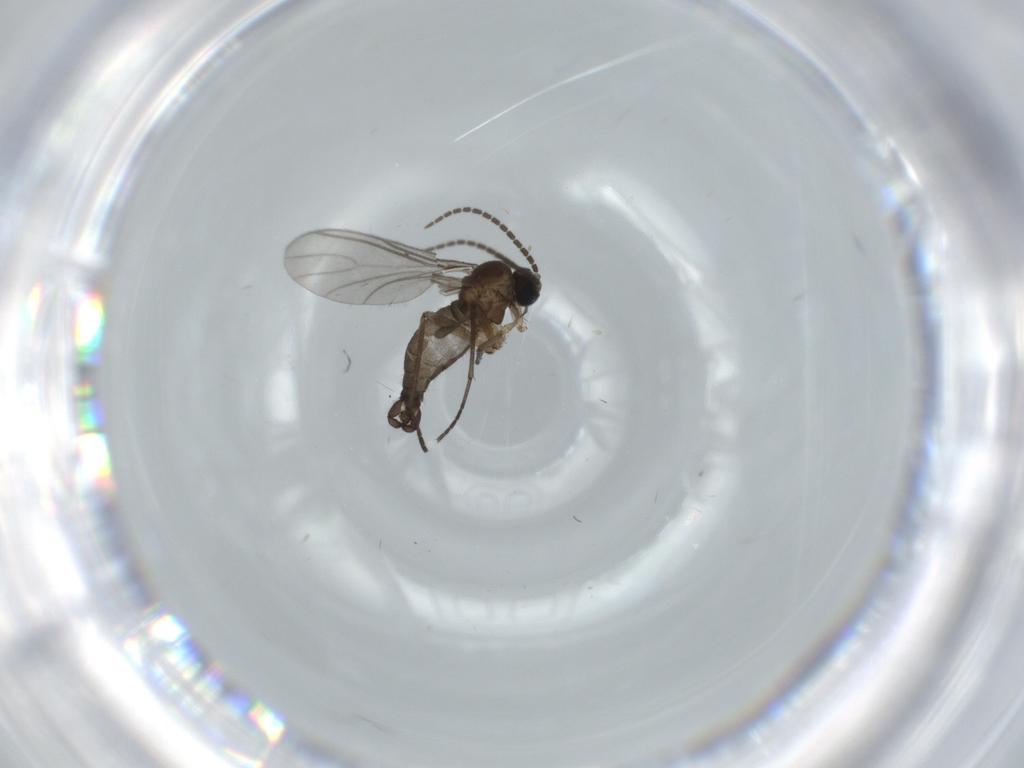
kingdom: Animalia
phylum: Arthropoda
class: Insecta
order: Diptera
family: Sciaridae
